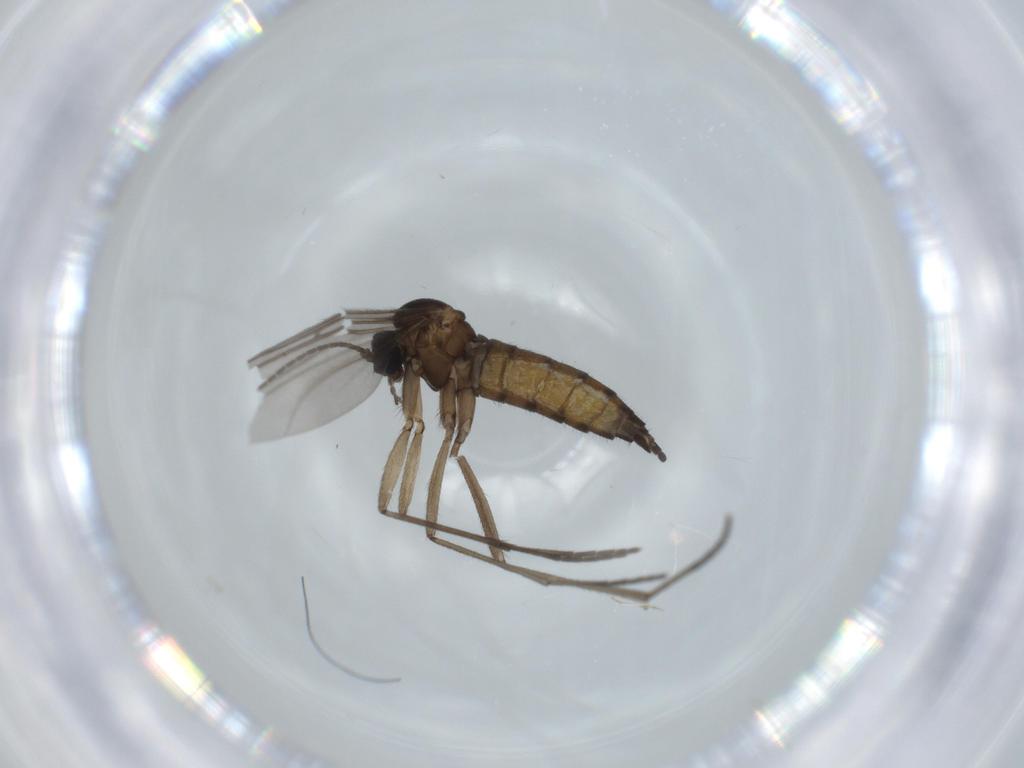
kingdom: Animalia
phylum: Arthropoda
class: Insecta
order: Diptera
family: Sciaridae
